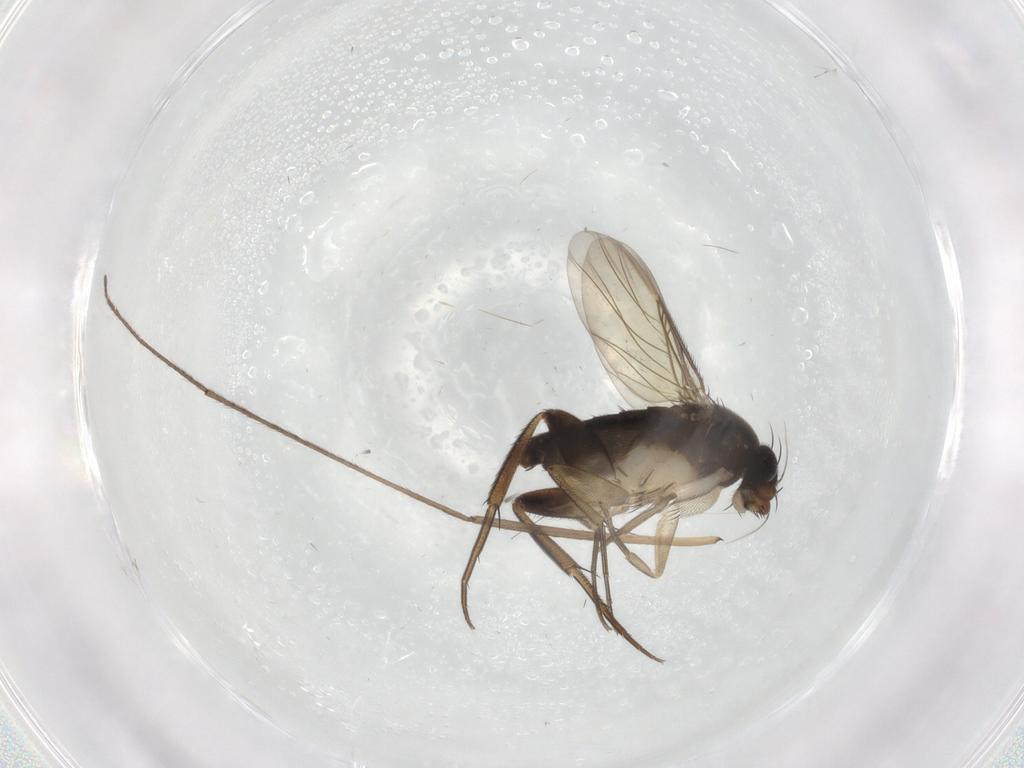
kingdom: Animalia
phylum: Arthropoda
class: Insecta
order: Diptera
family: Phoridae
